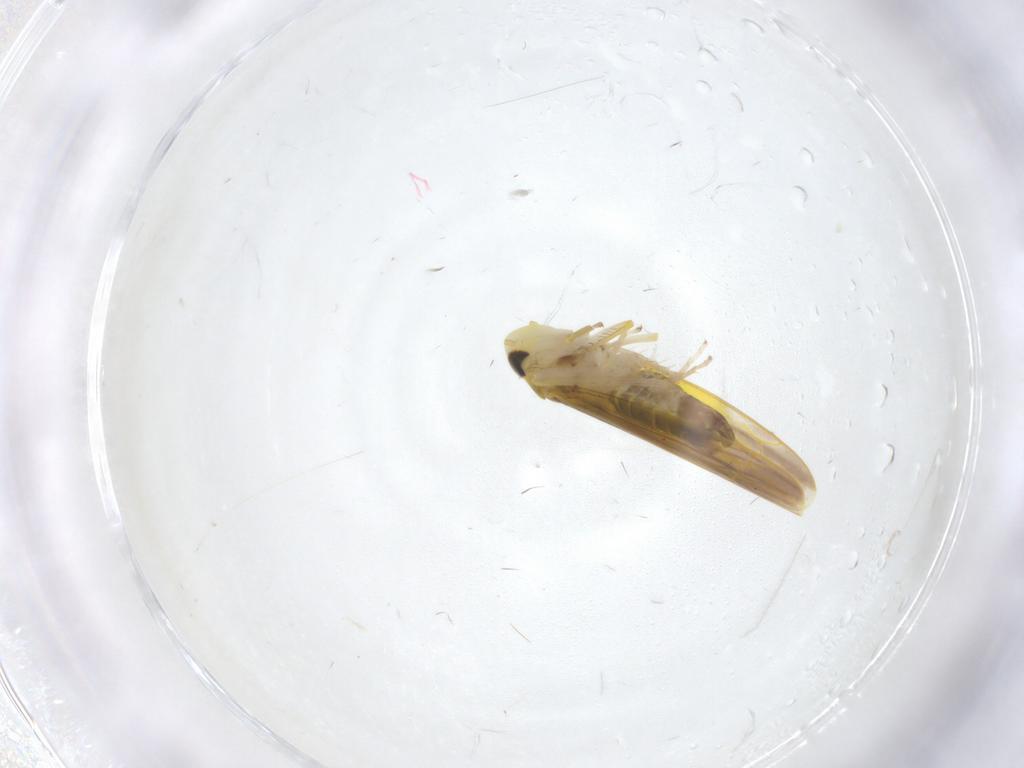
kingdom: Animalia
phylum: Arthropoda
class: Insecta
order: Hemiptera
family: Cicadellidae
